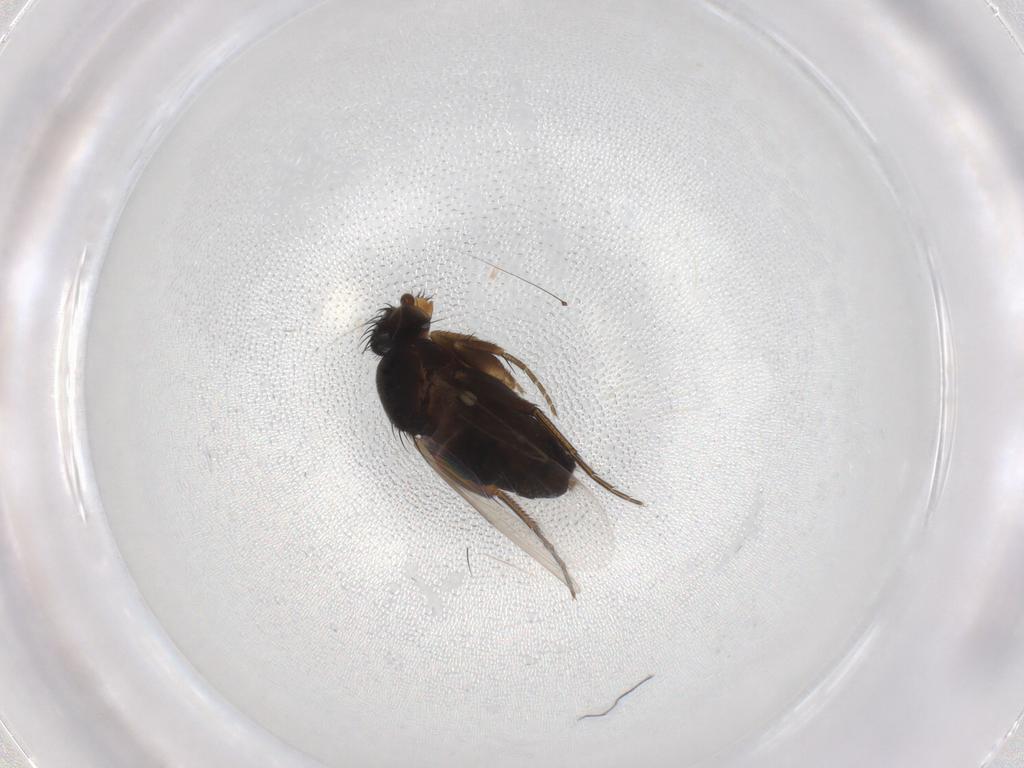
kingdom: Animalia
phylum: Arthropoda
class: Insecta
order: Diptera
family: Phoridae
